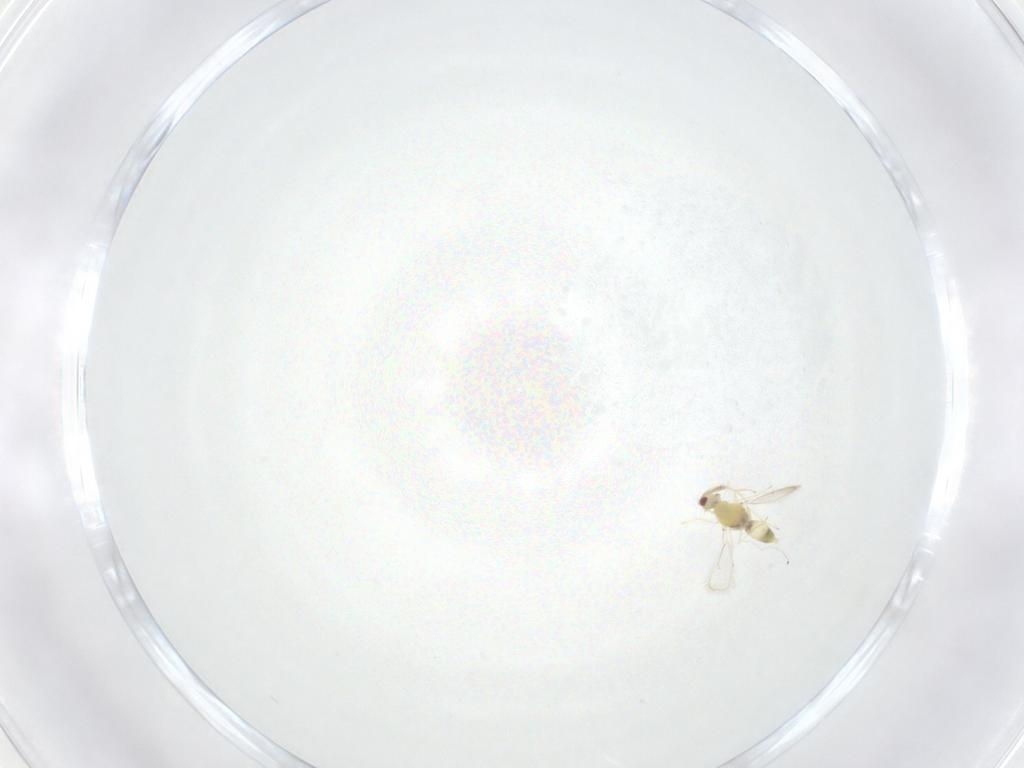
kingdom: Animalia
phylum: Arthropoda
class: Insecta
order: Hymenoptera
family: Eulophidae
